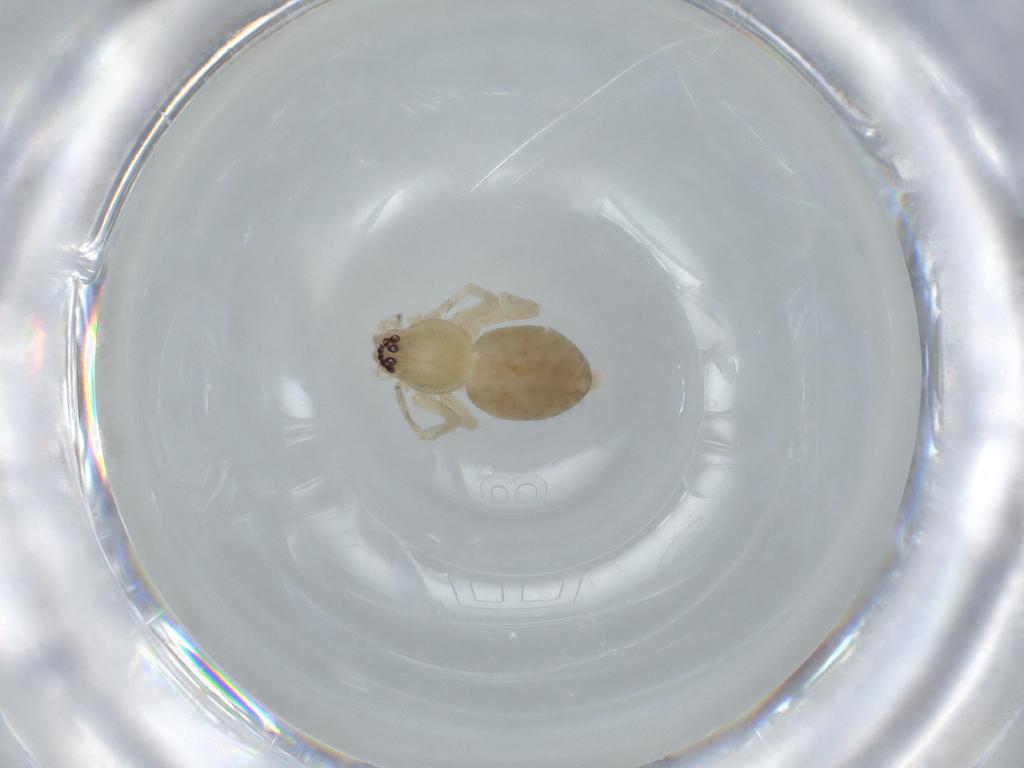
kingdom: Animalia
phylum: Arthropoda
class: Arachnida
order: Araneae
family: Amaurobiidae
